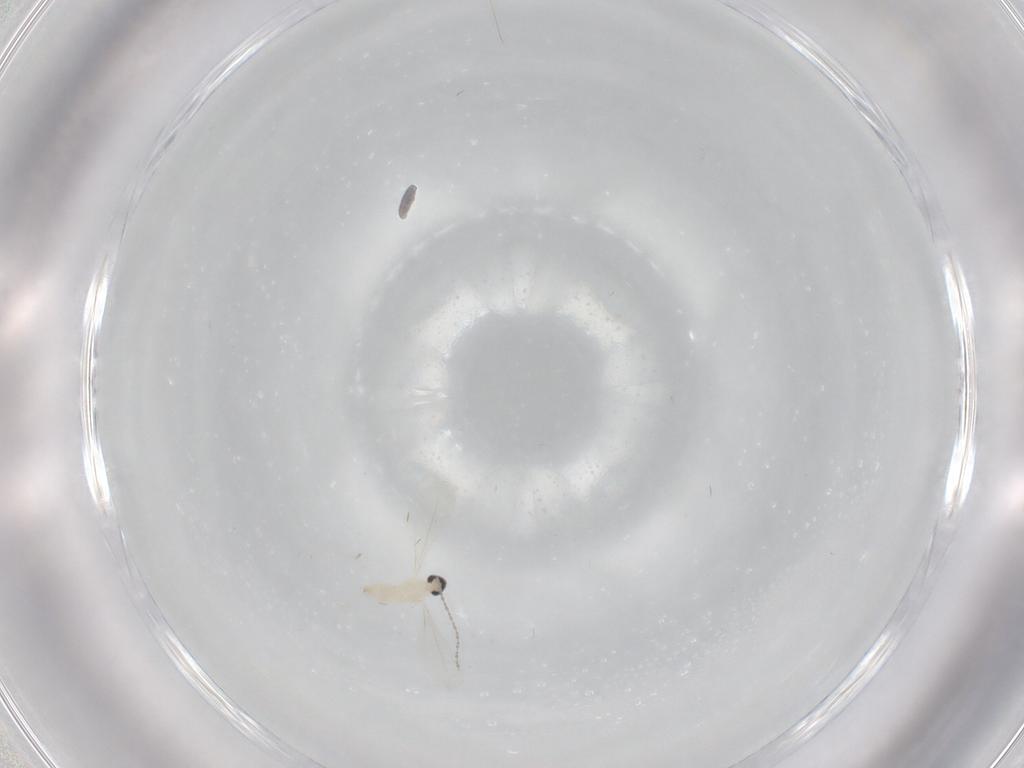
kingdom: Animalia
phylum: Arthropoda
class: Insecta
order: Diptera
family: Cecidomyiidae
